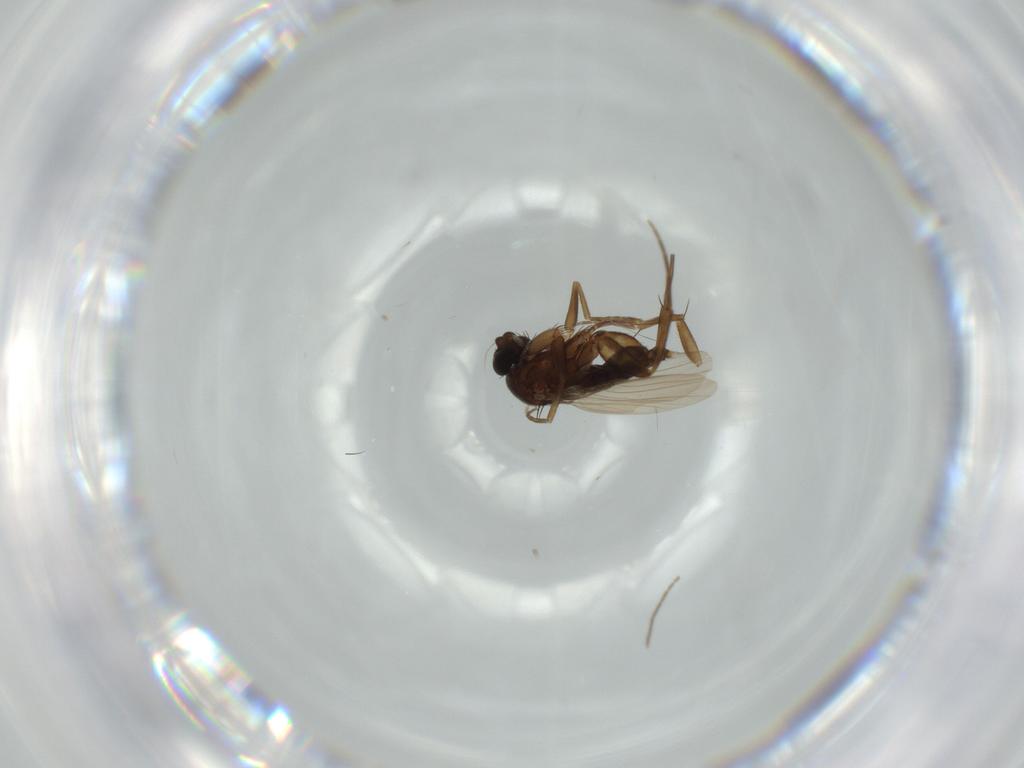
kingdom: Animalia
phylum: Arthropoda
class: Insecta
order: Diptera
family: Phoridae
